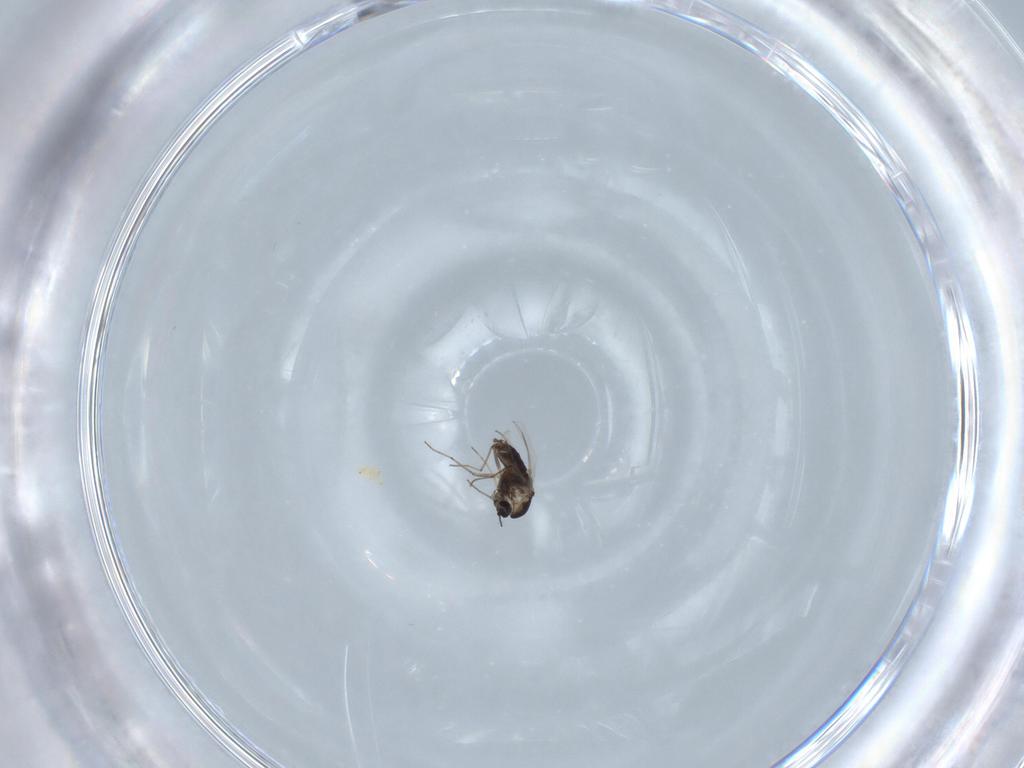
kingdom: Animalia
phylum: Arthropoda
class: Insecta
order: Diptera
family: Chironomidae
